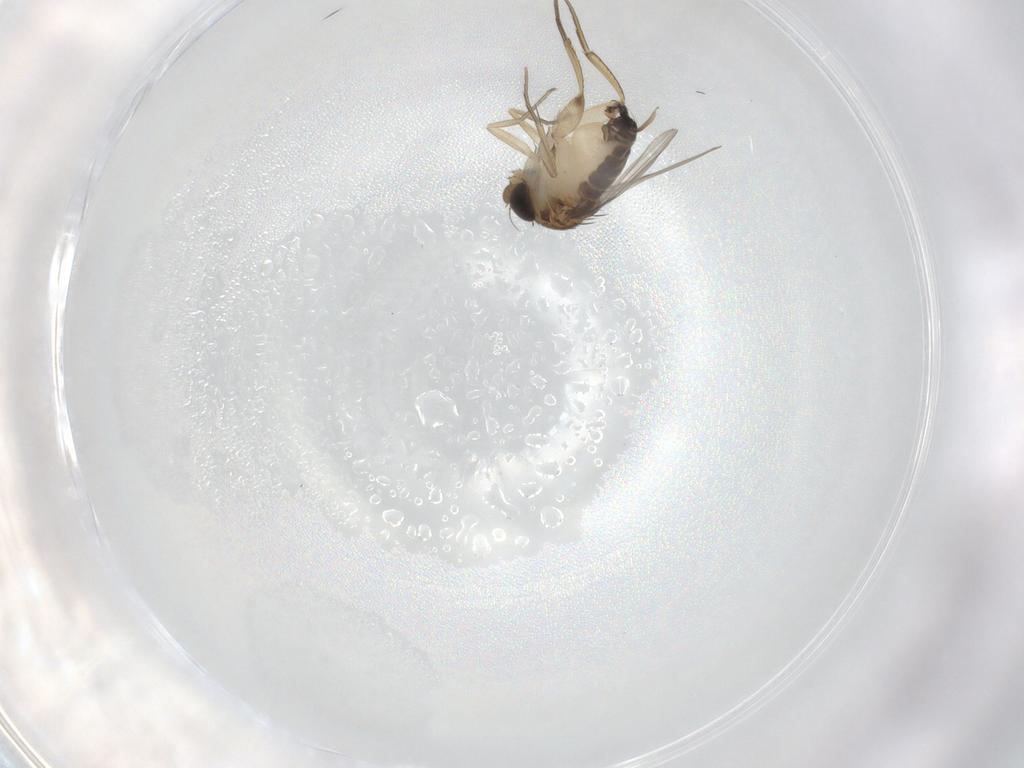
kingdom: Animalia
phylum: Arthropoda
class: Insecta
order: Diptera
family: Phoridae
